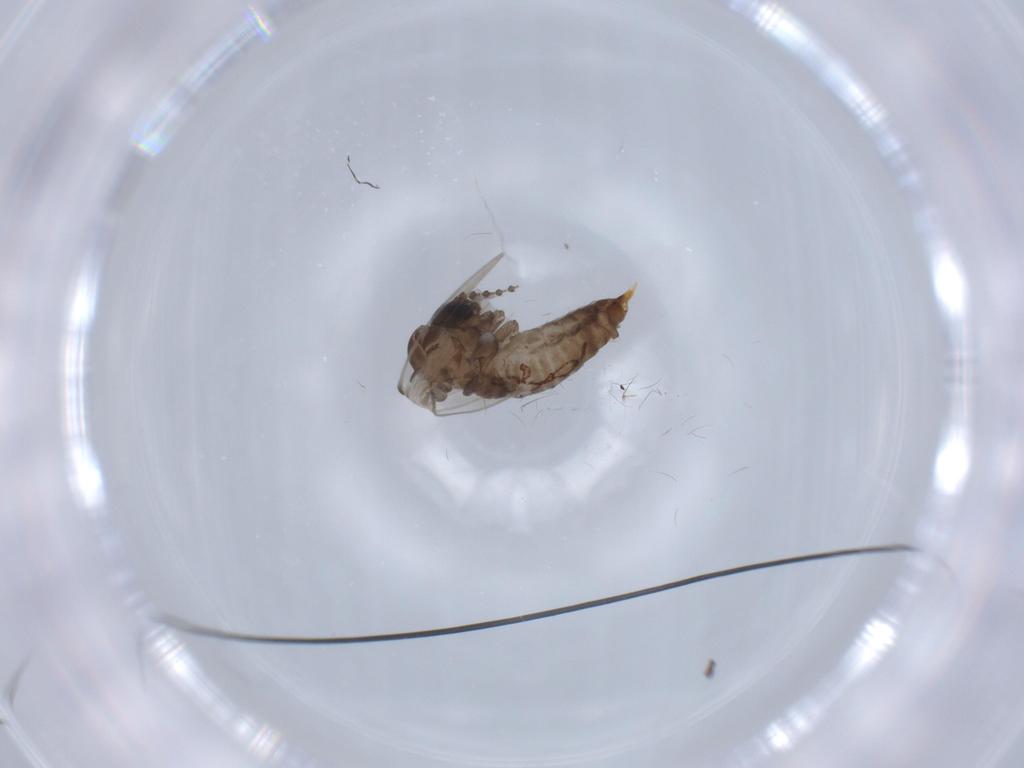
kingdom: Animalia
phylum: Arthropoda
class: Insecta
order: Diptera
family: Psychodidae
